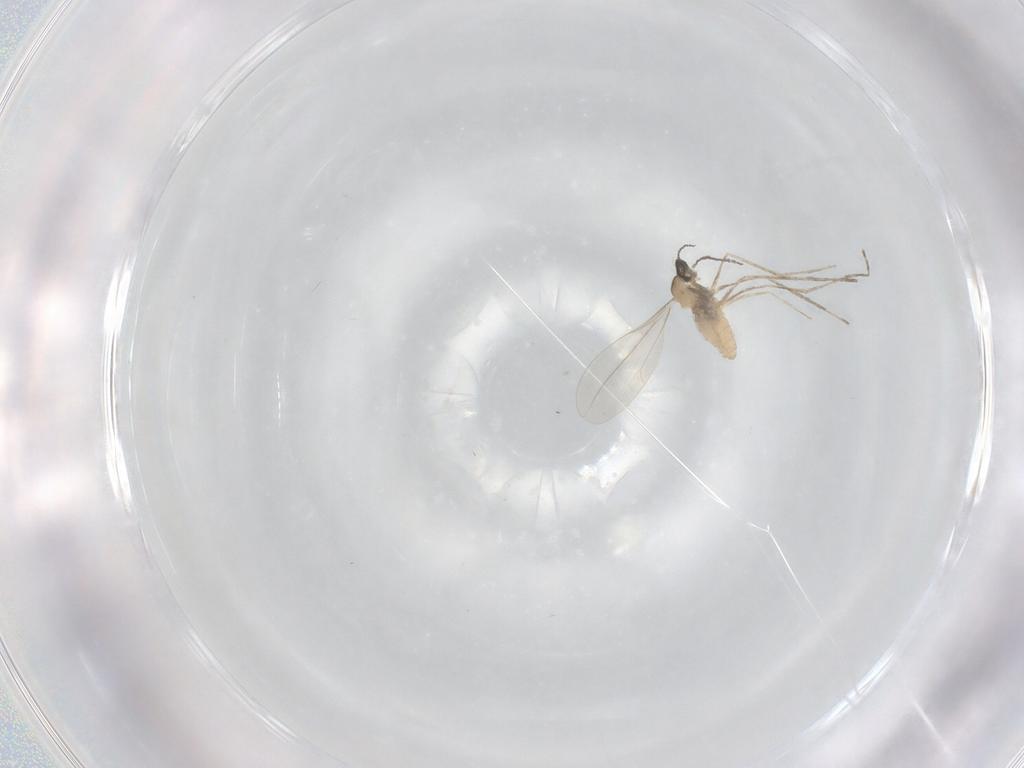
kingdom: Animalia
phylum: Arthropoda
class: Insecta
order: Diptera
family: Cecidomyiidae
